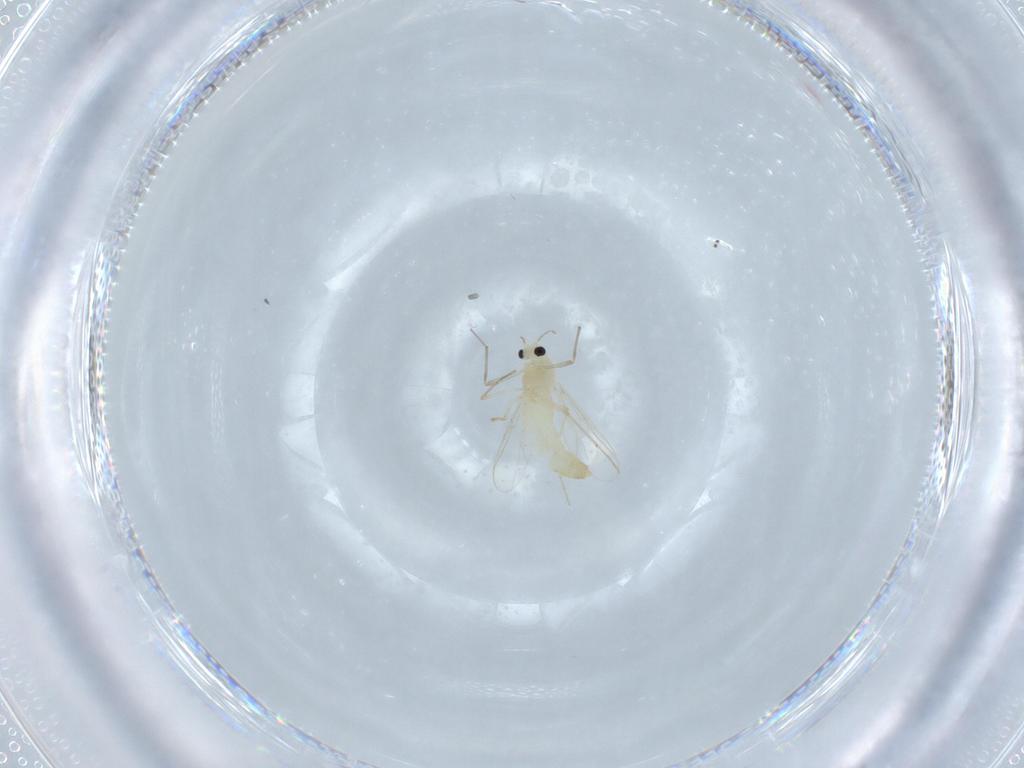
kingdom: Animalia
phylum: Arthropoda
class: Insecta
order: Diptera
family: Chironomidae
